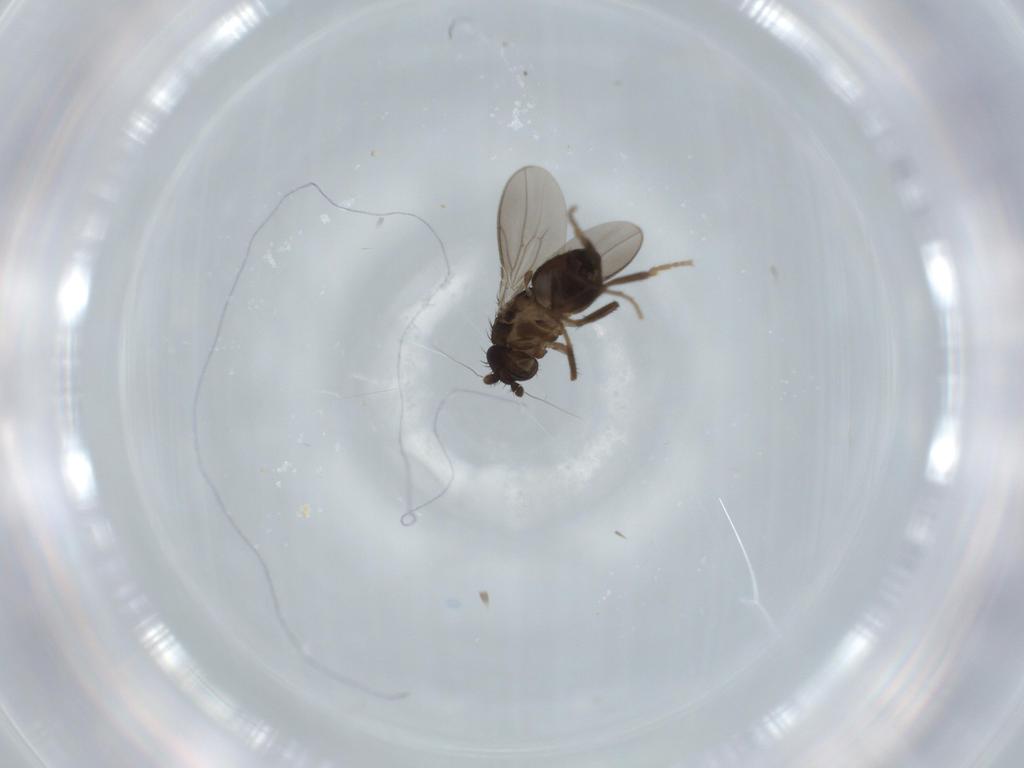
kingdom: Animalia
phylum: Arthropoda
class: Insecta
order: Diptera
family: Sphaeroceridae
